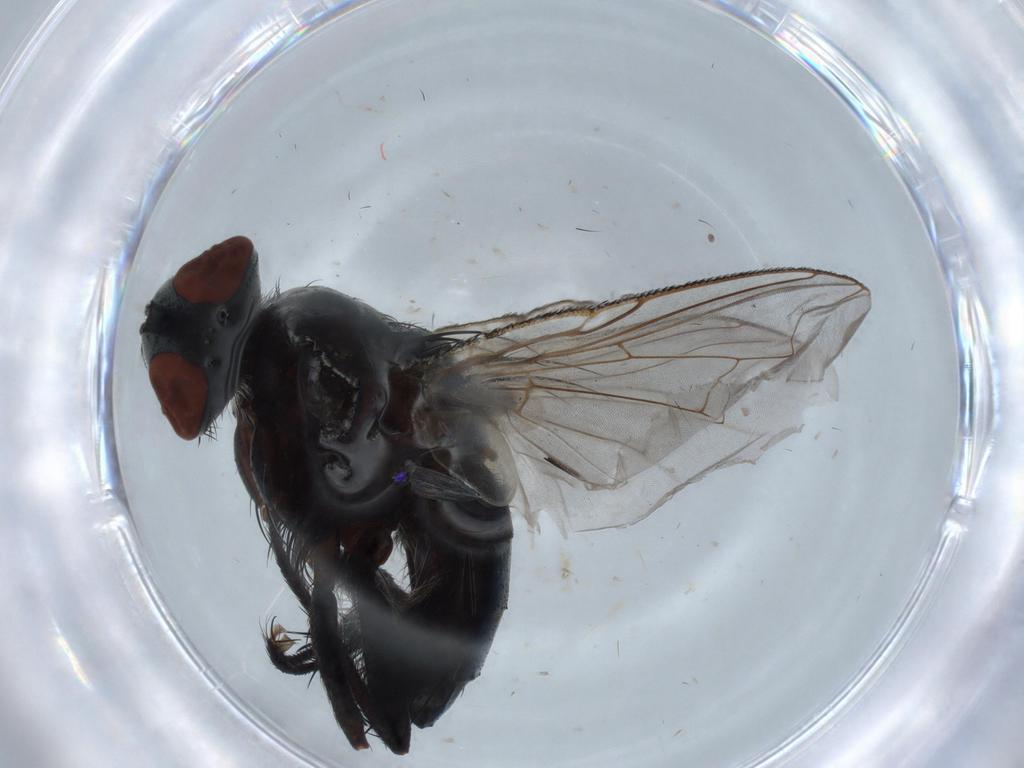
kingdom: Animalia
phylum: Arthropoda
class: Insecta
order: Diptera
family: Sarcophagidae
